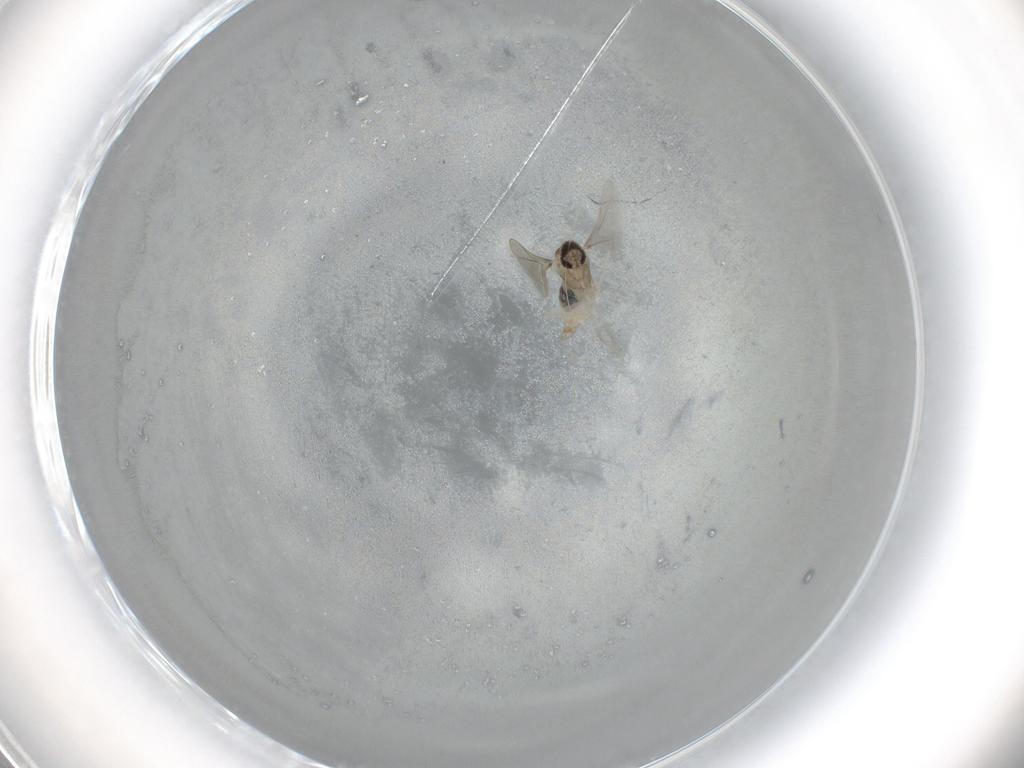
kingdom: Animalia
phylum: Arthropoda
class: Insecta
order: Diptera
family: Cecidomyiidae
